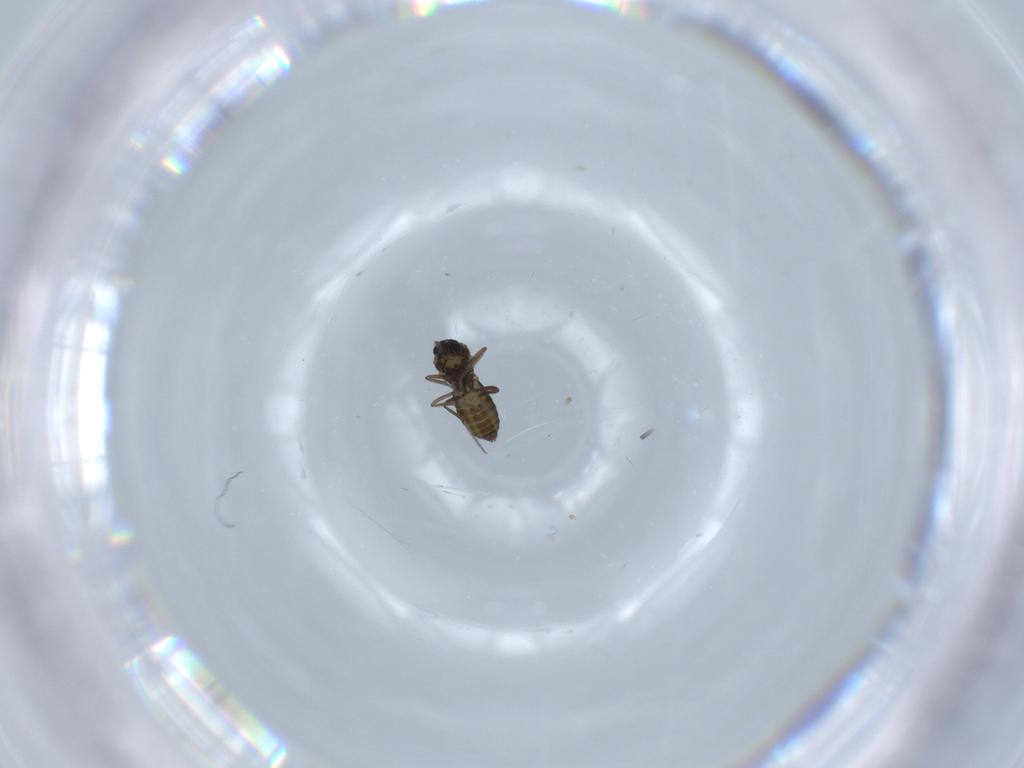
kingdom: Animalia
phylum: Arthropoda
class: Insecta
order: Diptera
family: Ceratopogonidae
